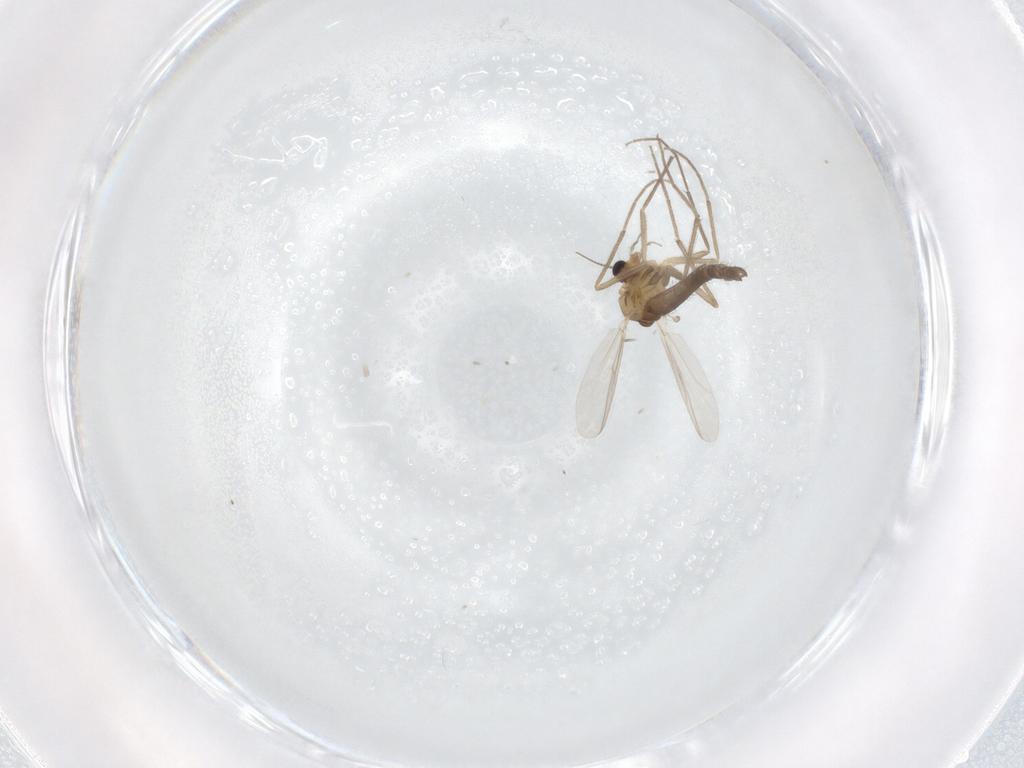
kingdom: Animalia
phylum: Arthropoda
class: Insecta
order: Diptera
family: Chironomidae
